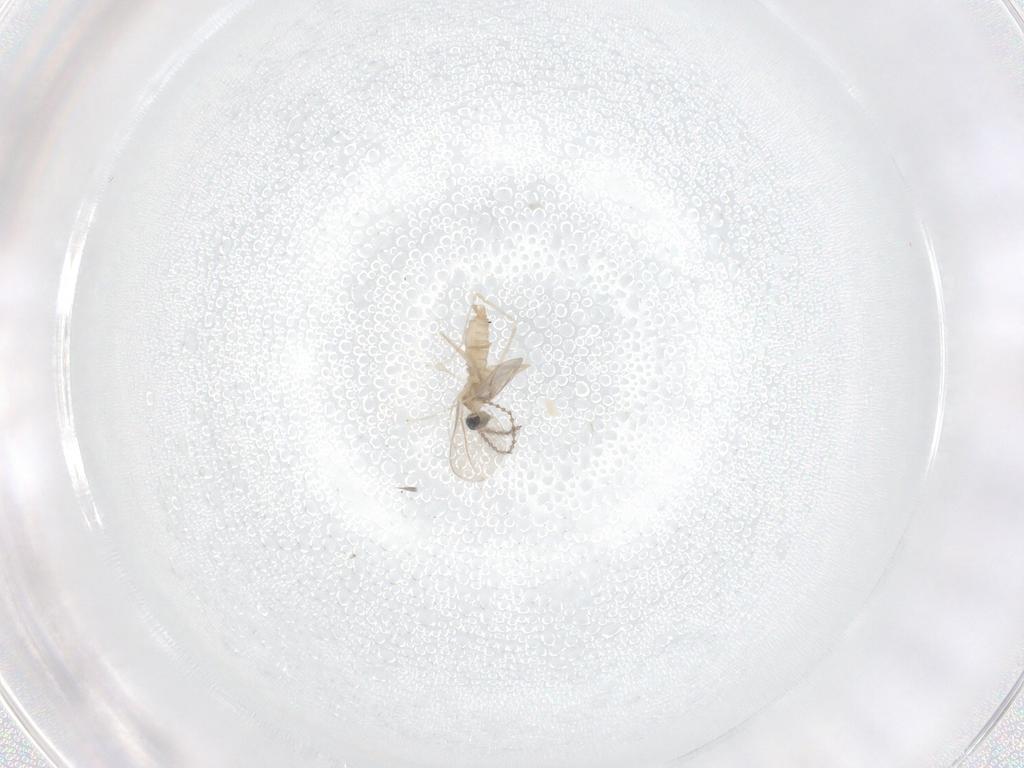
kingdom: Animalia
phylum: Arthropoda
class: Insecta
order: Diptera
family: Cecidomyiidae
